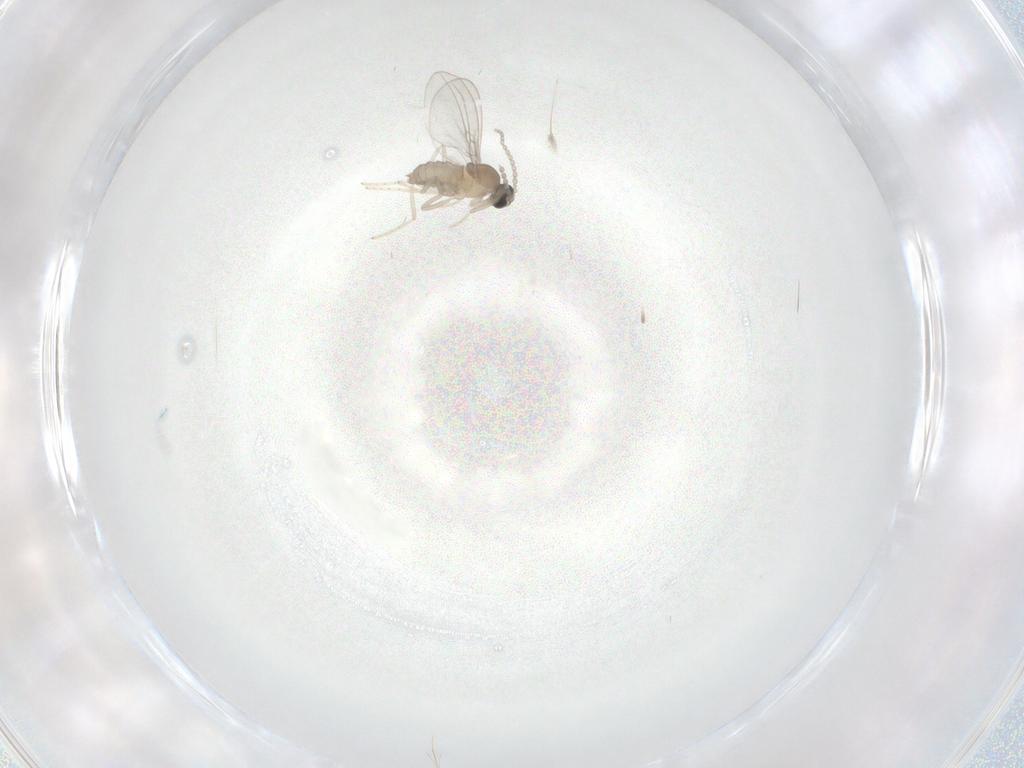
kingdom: Animalia
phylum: Arthropoda
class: Insecta
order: Diptera
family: Cecidomyiidae
